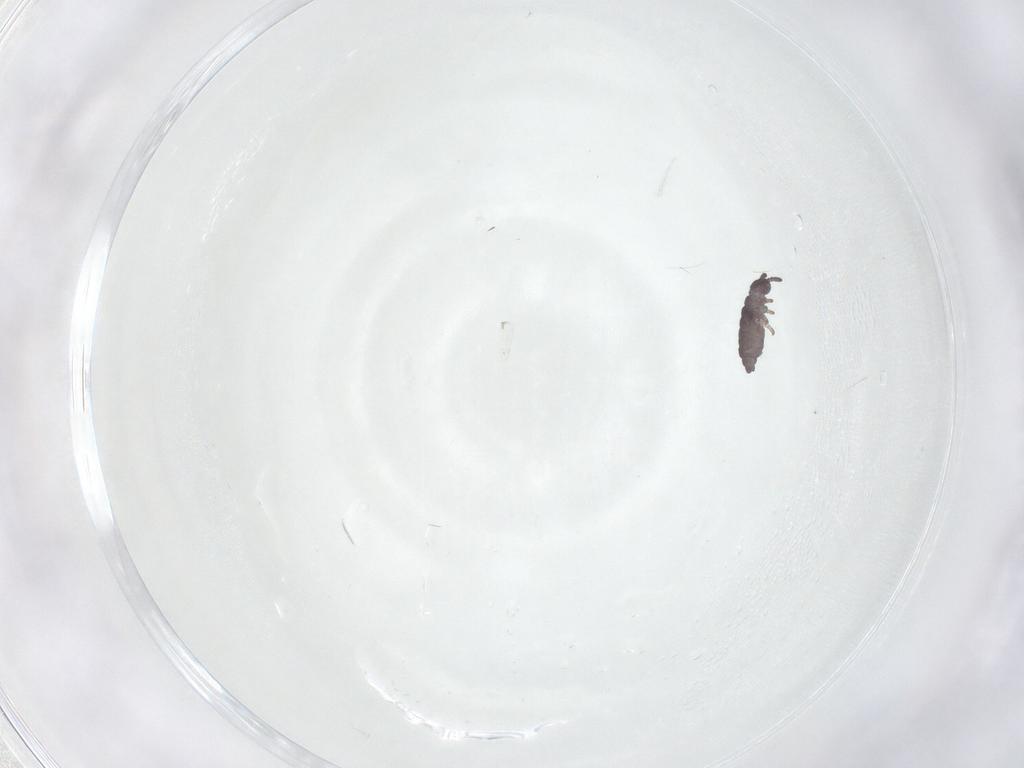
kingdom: Animalia
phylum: Arthropoda
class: Collembola
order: Poduromorpha
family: Hypogastruridae
